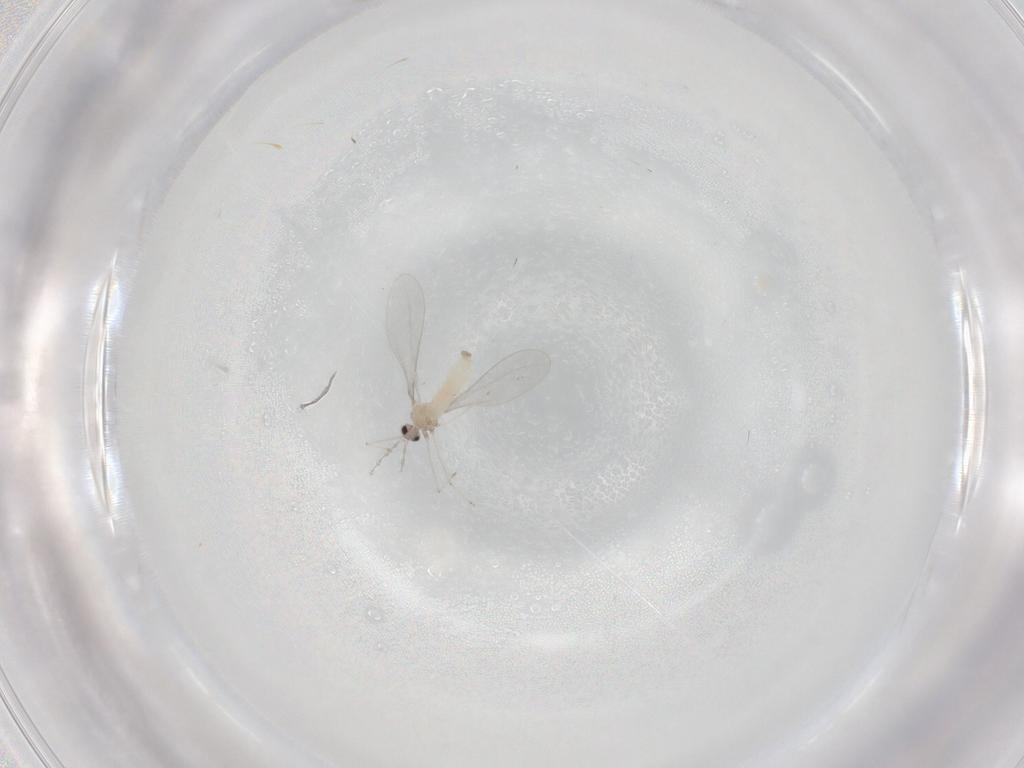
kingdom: Animalia
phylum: Arthropoda
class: Insecta
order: Diptera
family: Cecidomyiidae
